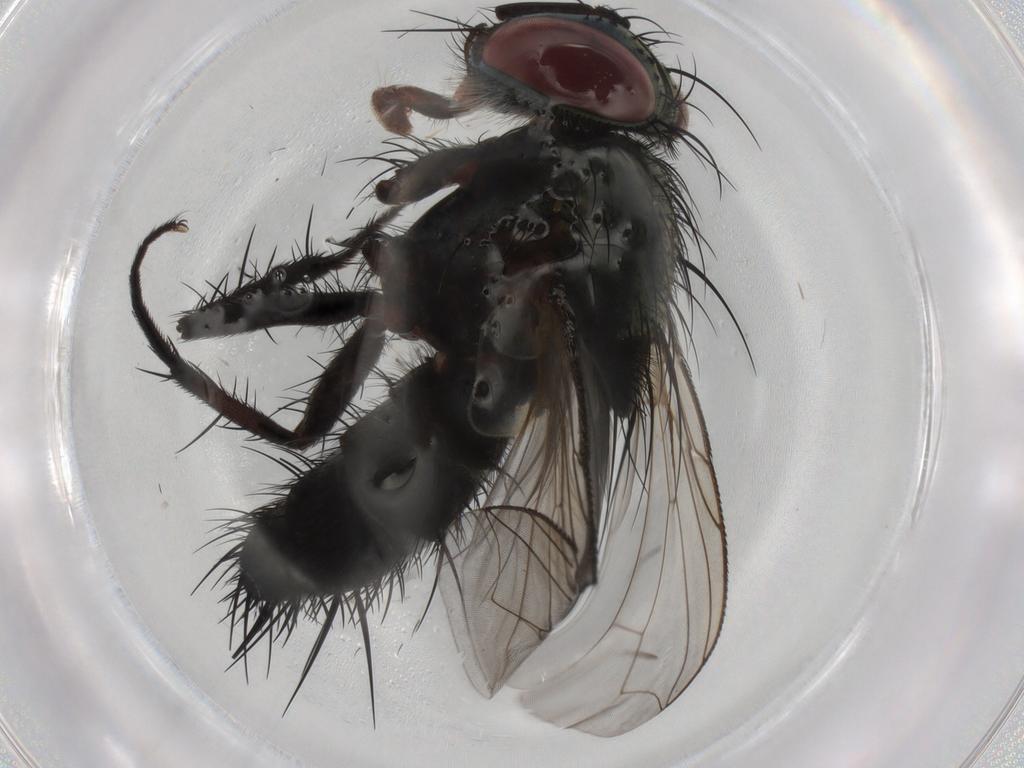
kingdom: Animalia
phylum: Arthropoda
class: Insecta
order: Diptera
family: Tachinidae
